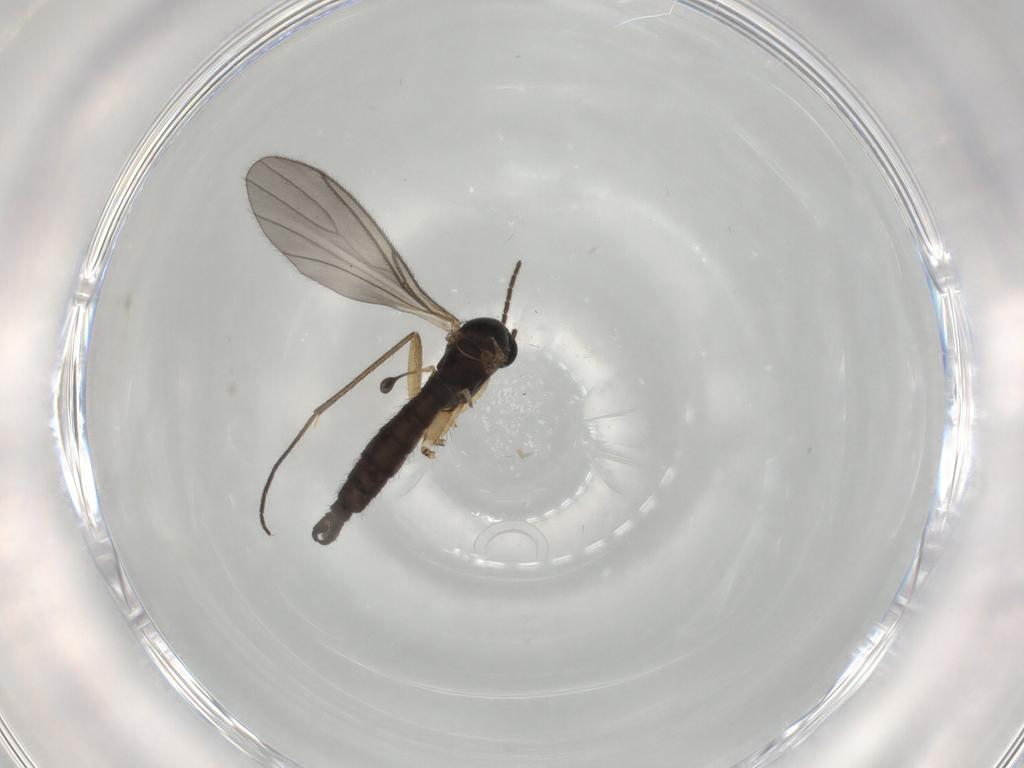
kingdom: Animalia
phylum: Arthropoda
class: Insecta
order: Diptera
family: Sciaridae
